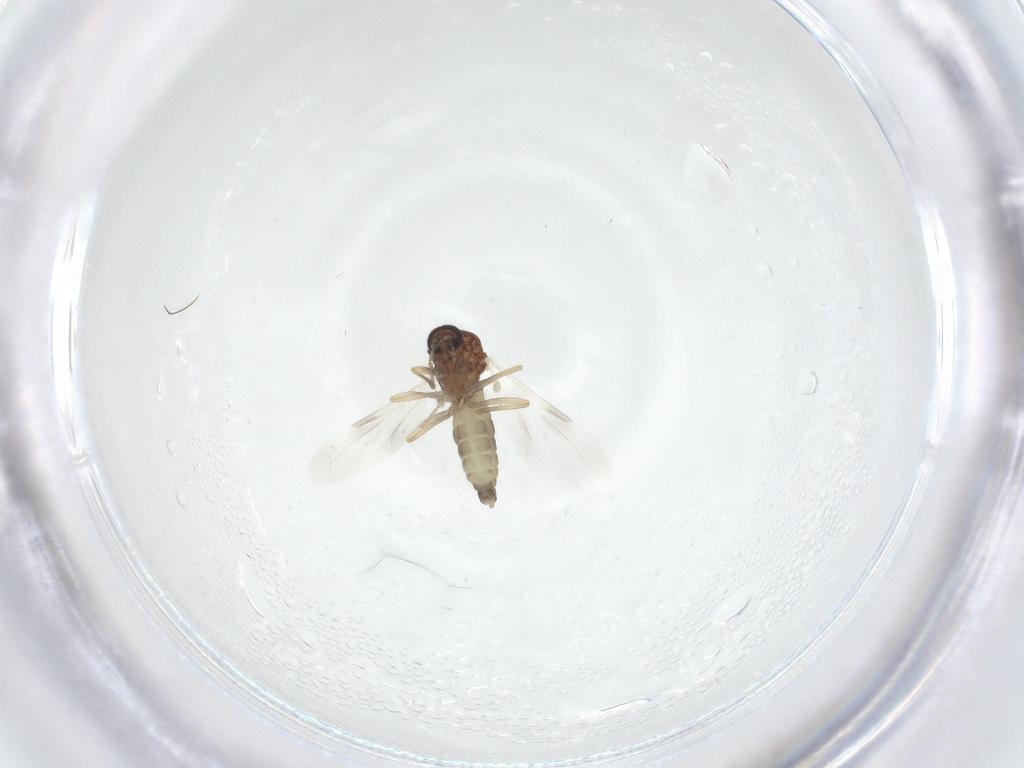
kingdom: Animalia
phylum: Arthropoda
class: Insecta
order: Diptera
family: Ceratopogonidae
